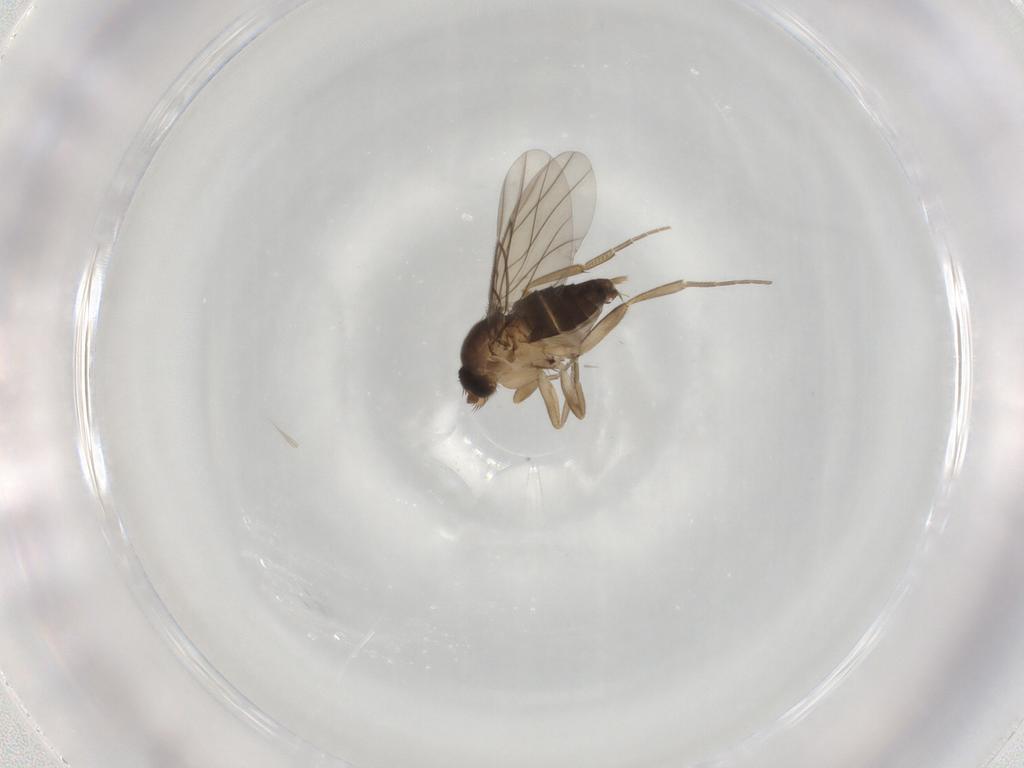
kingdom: Animalia
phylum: Arthropoda
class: Insecta
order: Diptera
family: Phoridae
